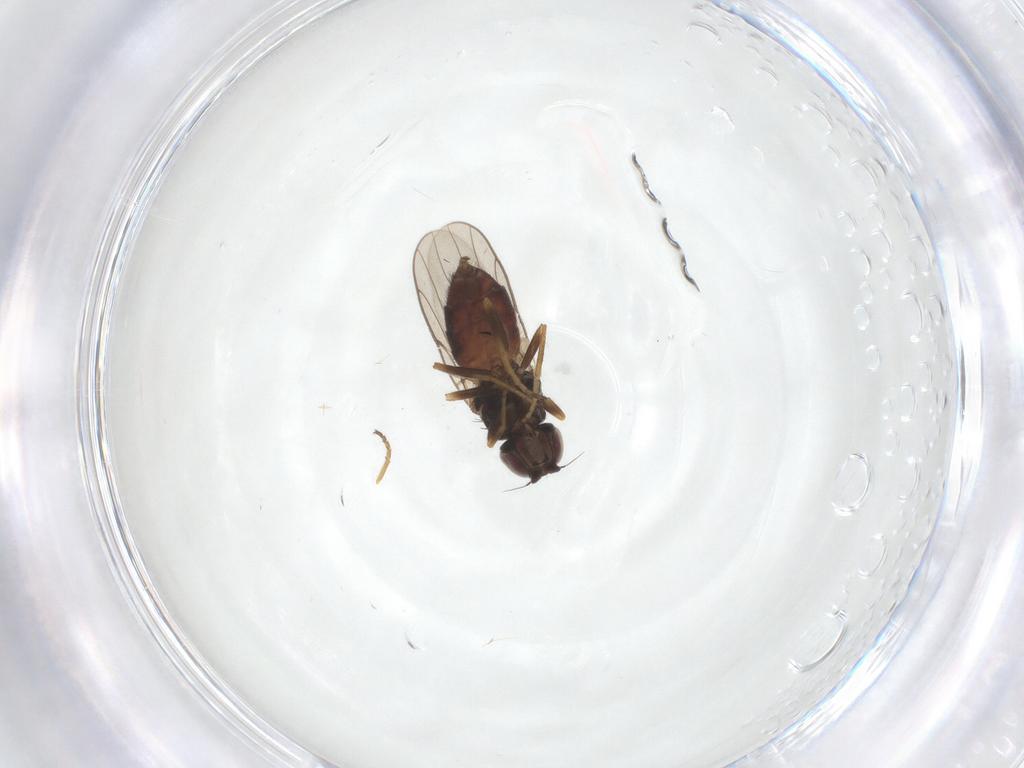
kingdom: Animalia
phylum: Arthropoda
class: Insecta
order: Diptera
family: Chloropidae
